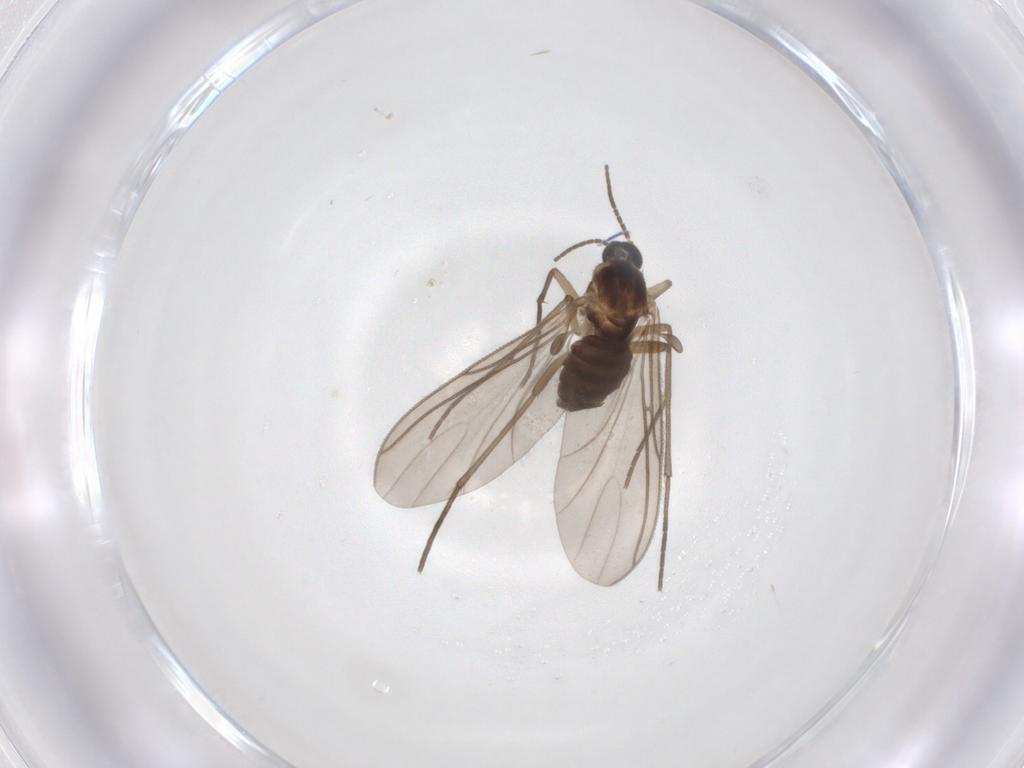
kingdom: Animalia
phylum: Arthropoda
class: Insecta
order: Diptera
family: Sciaridae
